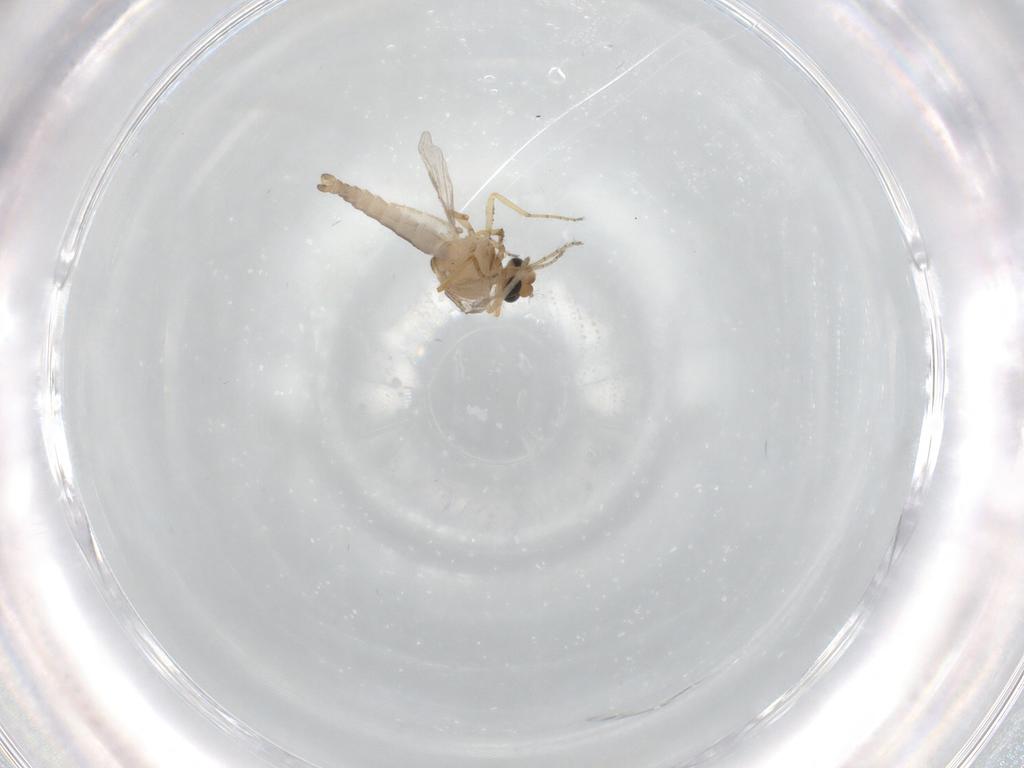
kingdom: Animalia
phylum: Arthropoda
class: Insecta
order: Diptera
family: Ceratopogonidae
